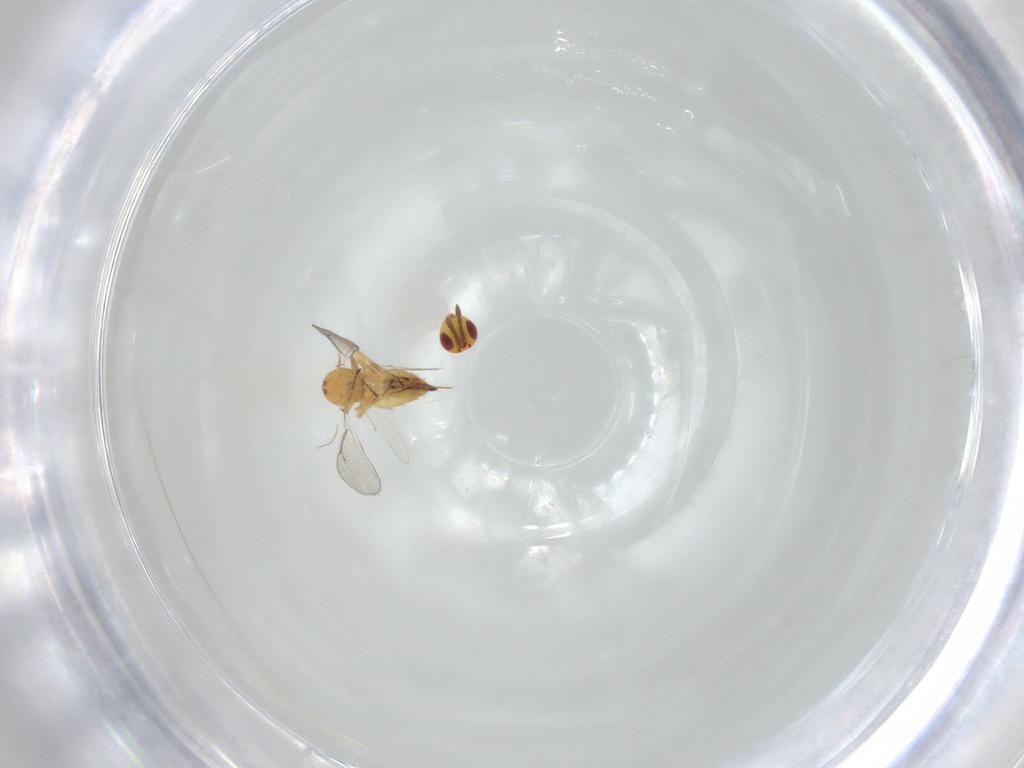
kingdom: Animalia
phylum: Arthropoda
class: Insecta
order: Hymenoptera
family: Eulophidae
